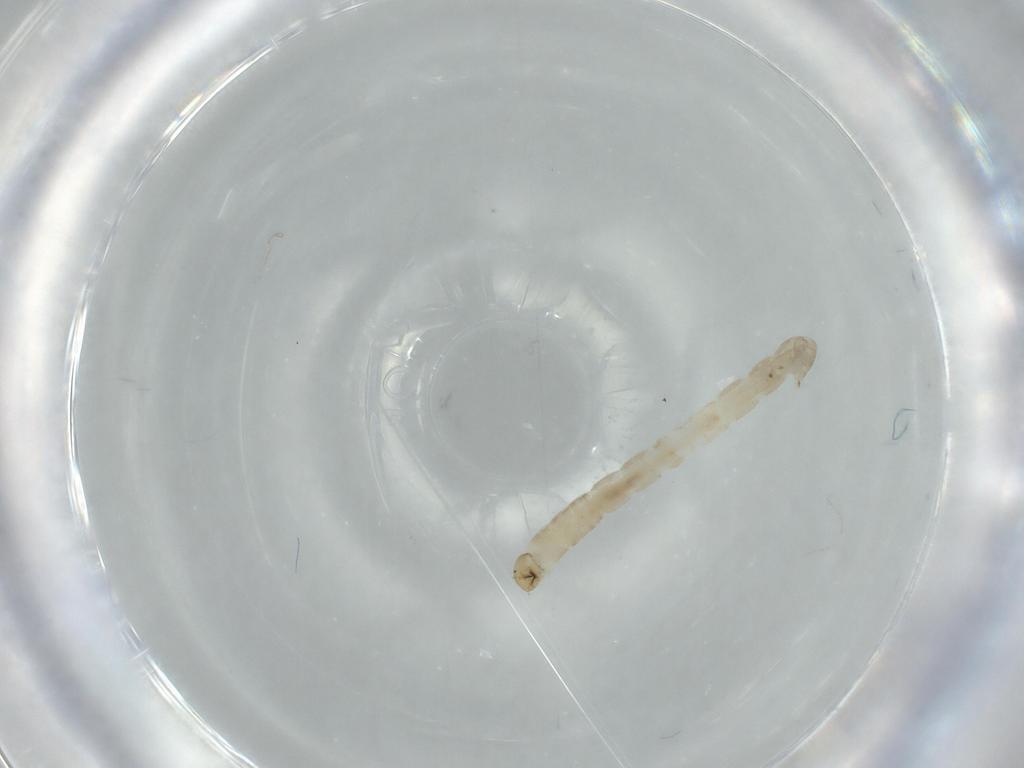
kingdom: Animalia
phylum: Arthropoda
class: Insecta
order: Diptera
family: Chironomidae
